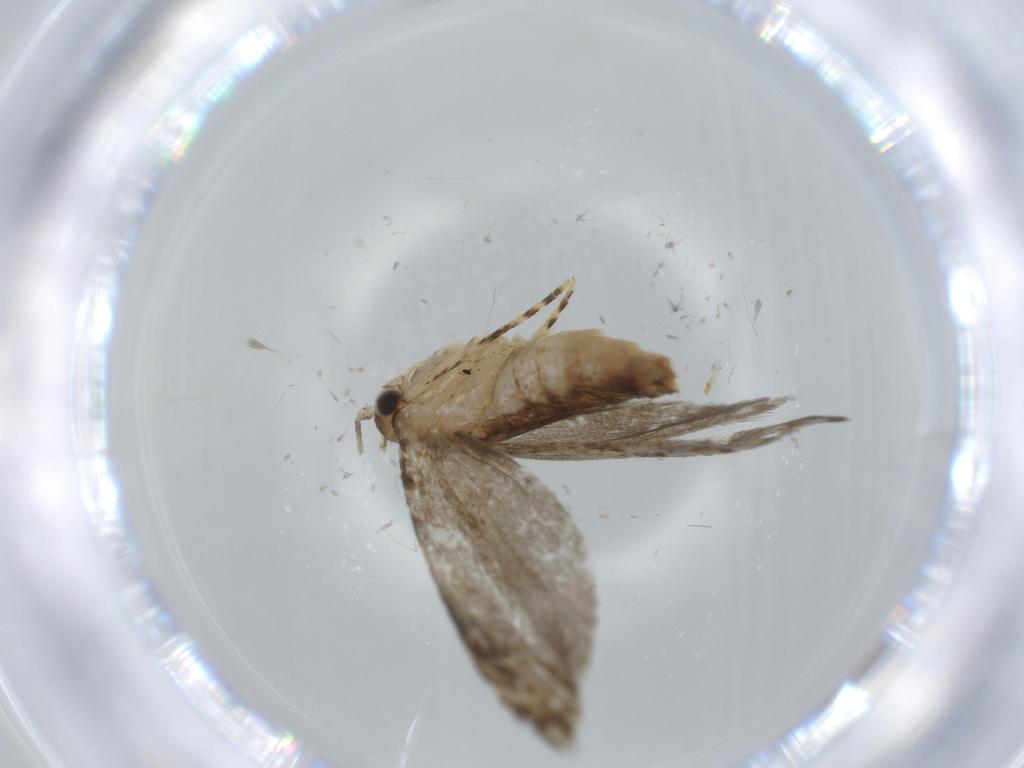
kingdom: Animalia
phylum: Arthropoda
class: Insecta
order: Lepidoptera
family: Tineidae
